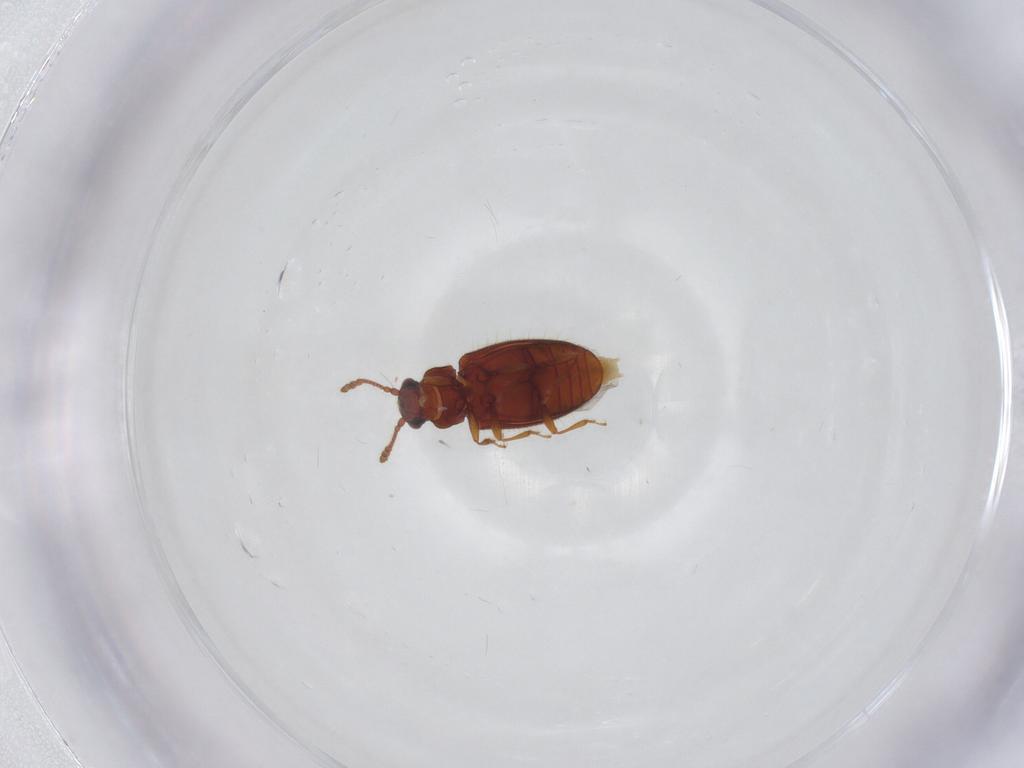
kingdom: Animalia
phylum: Arthropoda
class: Insecta
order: Coleoptera
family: Cryptophagidae
